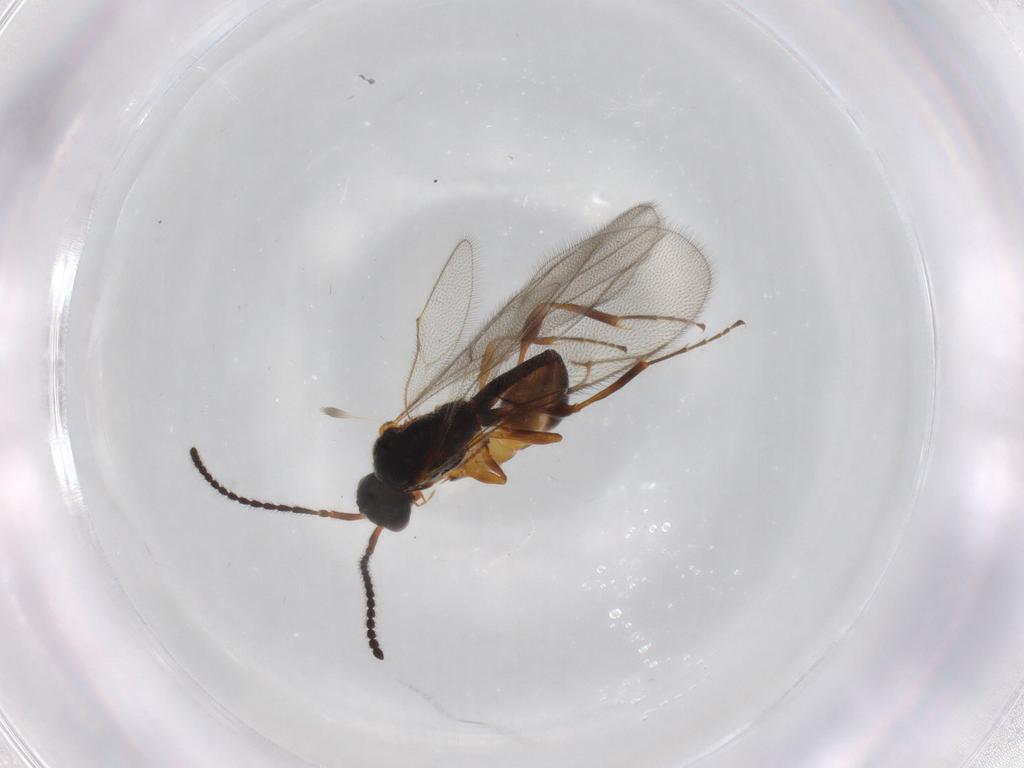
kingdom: Animalia
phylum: Arthropoda
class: Insecta
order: Hymenoptera
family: Diapriidae
